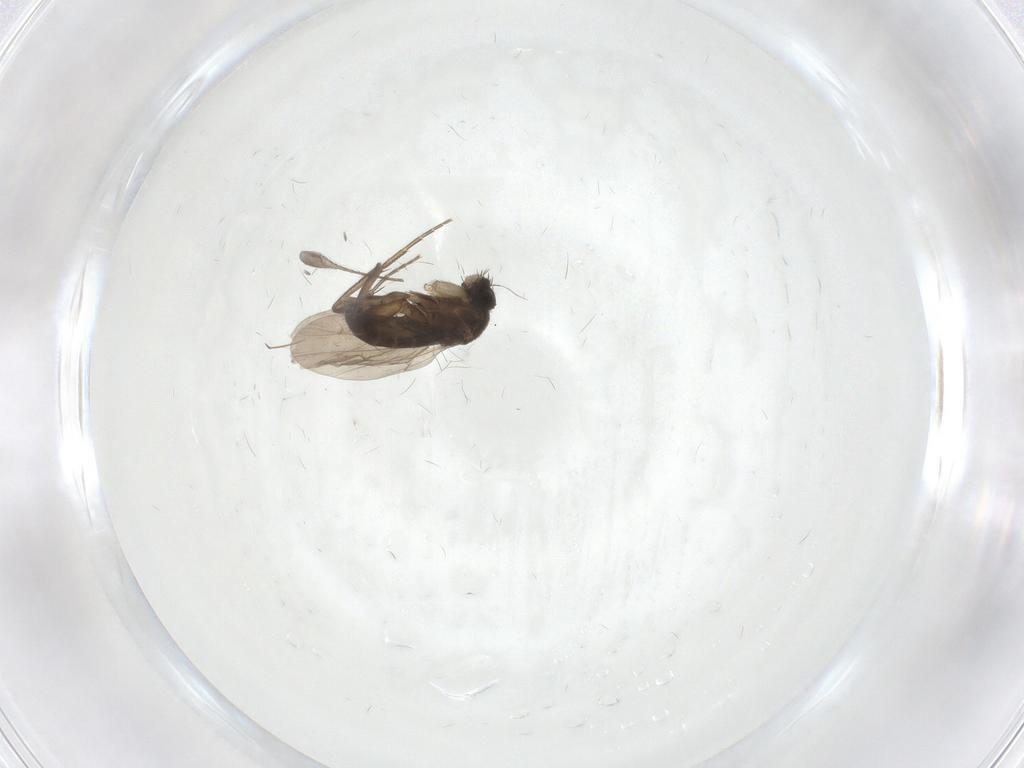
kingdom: Animalia
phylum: Arthropoda
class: Insecta
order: Diptera
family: Phoridae
